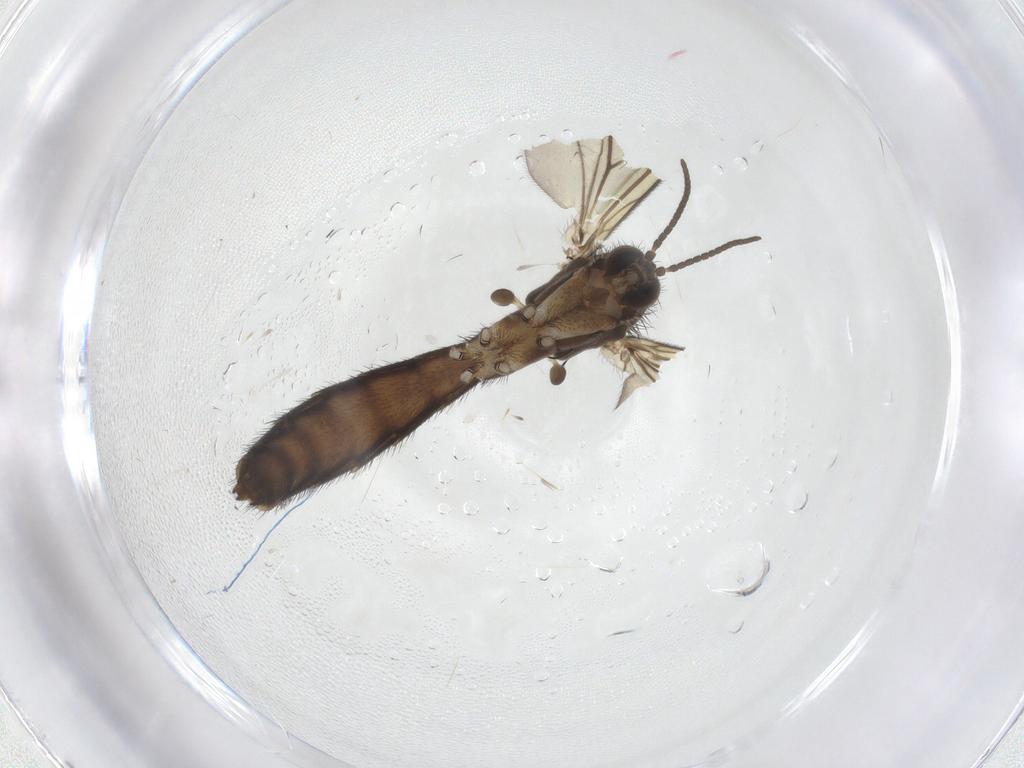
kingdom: Animalia
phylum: Arthropoda
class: Insecta
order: Diptera
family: Keroplatidae
